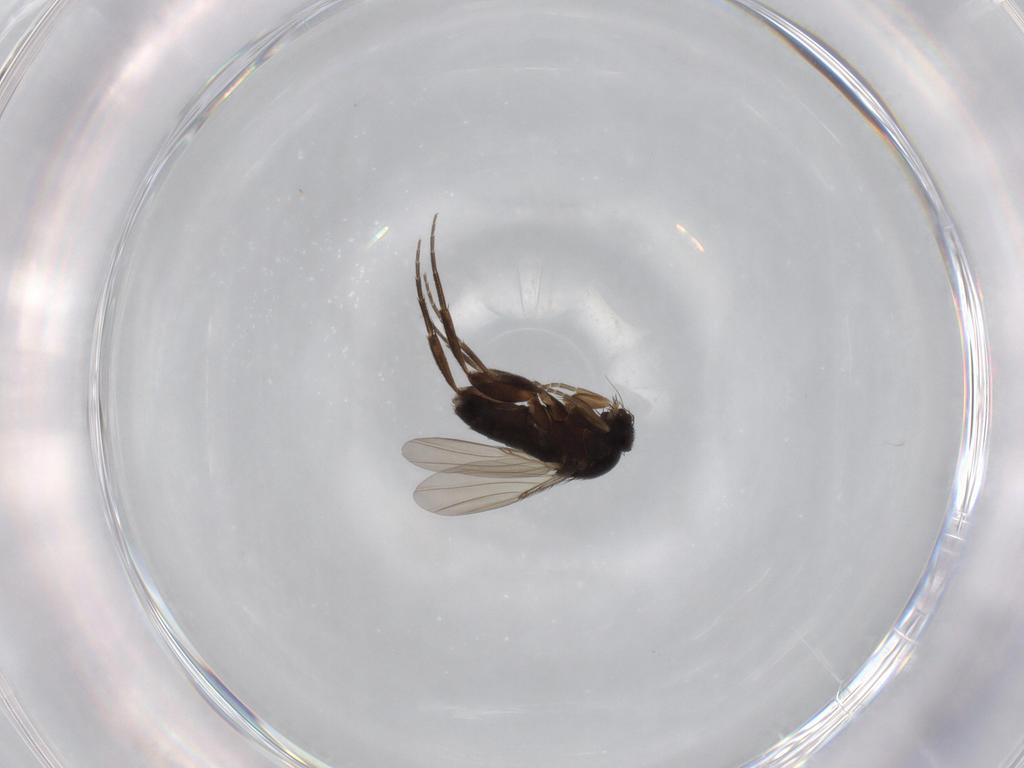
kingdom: Animalia
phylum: Arthropoda
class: Insecta
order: Diptera
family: Phoridae
